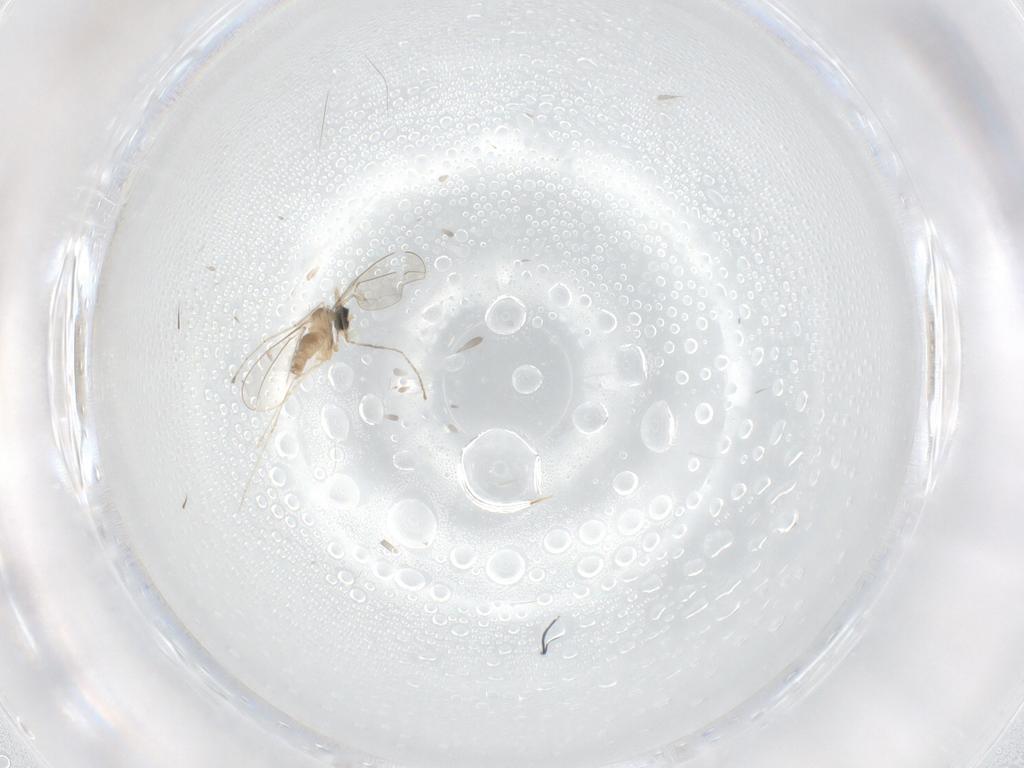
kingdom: Animalia
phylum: Arthropoda
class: Insecta
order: Diptera
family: Cecidomyiidae
